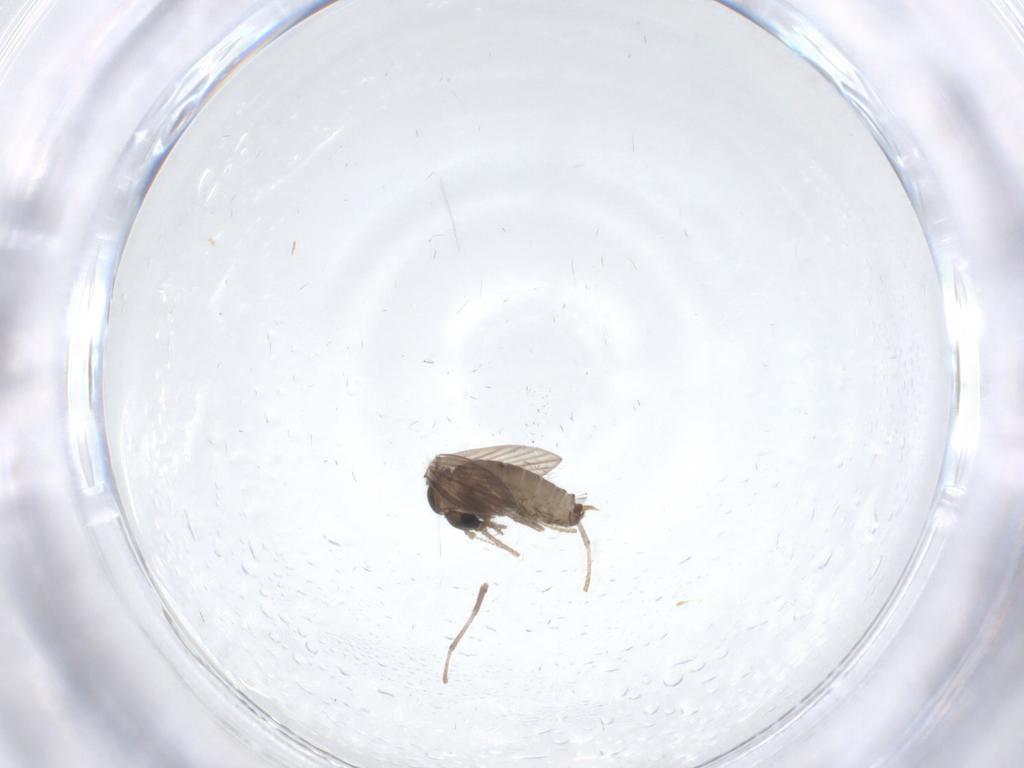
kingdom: Animalia
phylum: Arthropoda
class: Insecta
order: Diptera
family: Psychodidae
